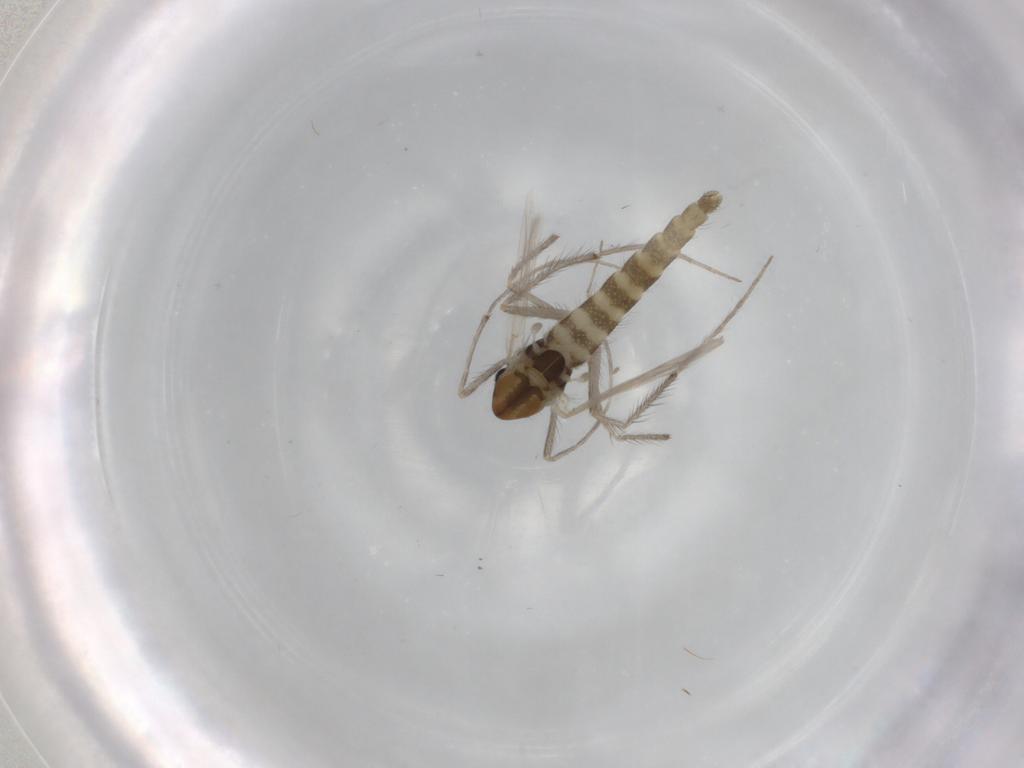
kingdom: Animalia
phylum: Arthropoda
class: Insecta
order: Diptera
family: Chironomidae
